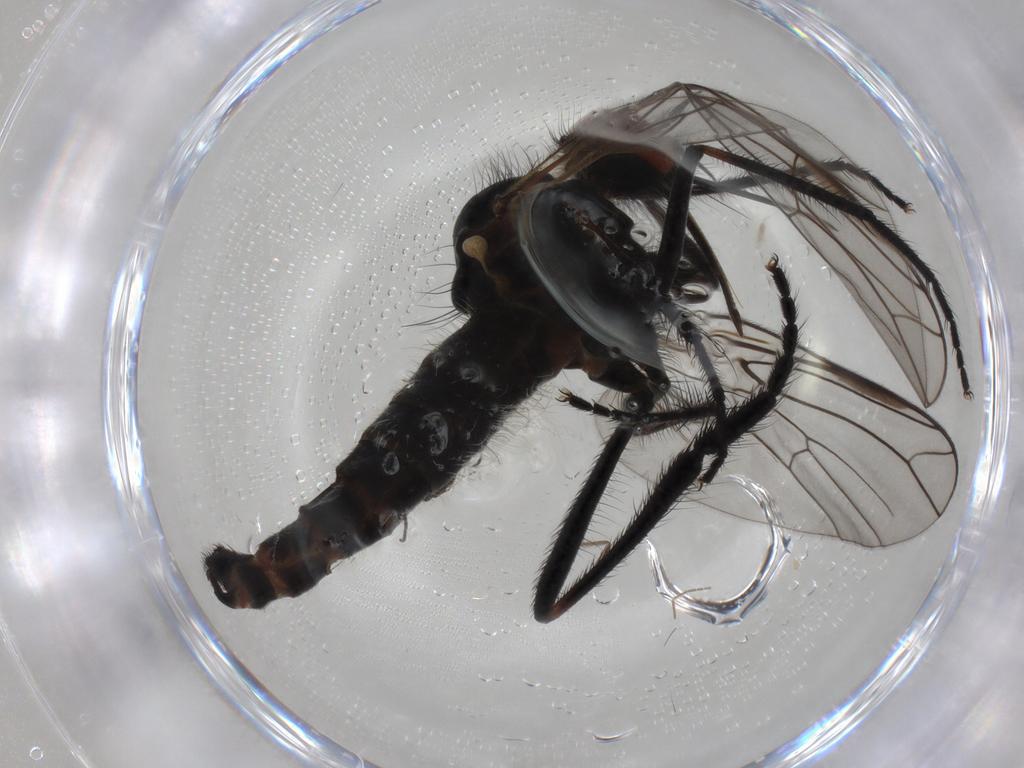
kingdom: Animalia
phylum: Arthropoda
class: Insecta
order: Diptera
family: Empididae
